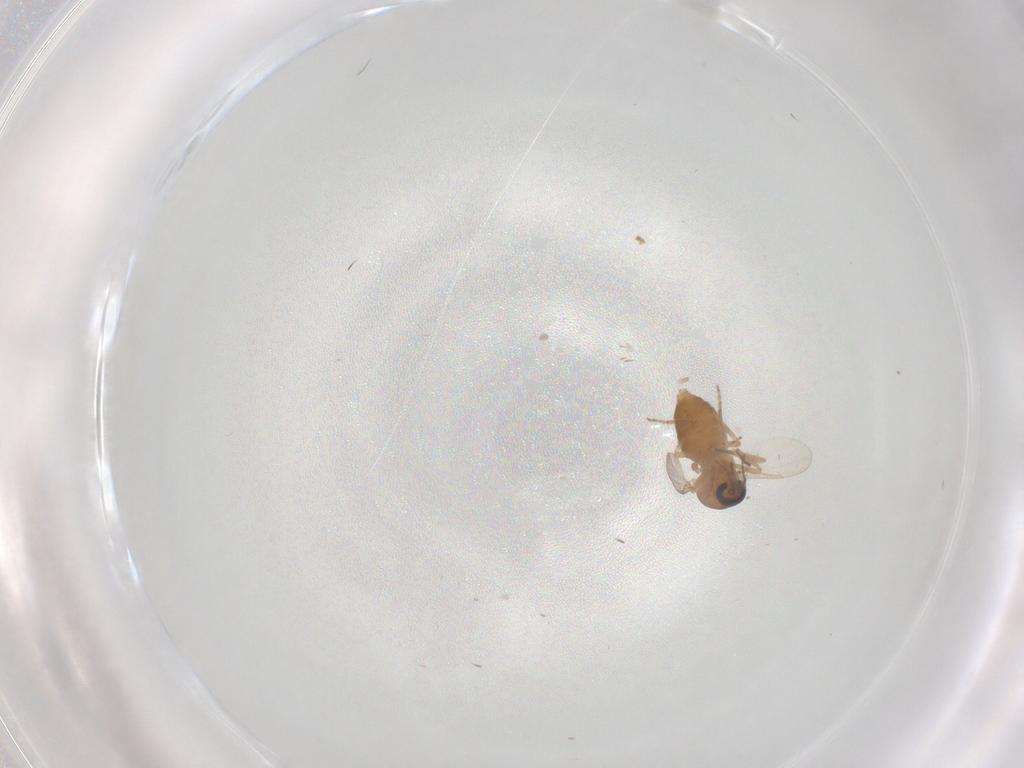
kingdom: Animalia
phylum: Arthropoda
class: Insecta
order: Diptera
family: Ceratopogonidae
